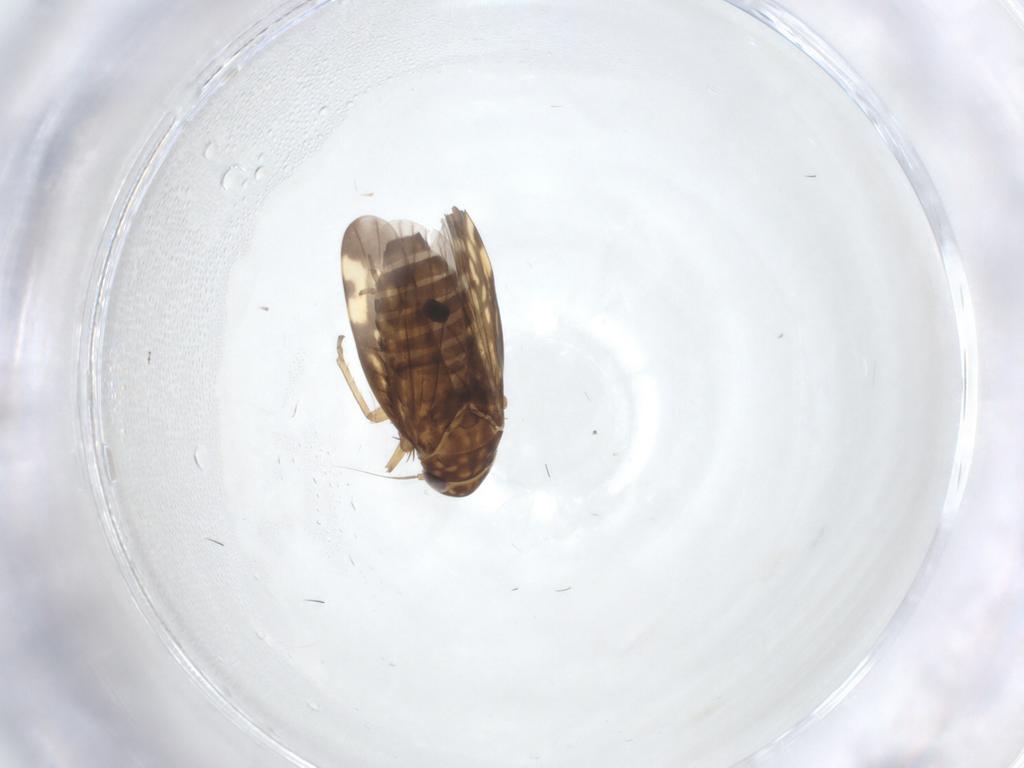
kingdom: Animalia
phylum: Arthropoda
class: Insecta
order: Hemiptera
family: Cicadellidae
